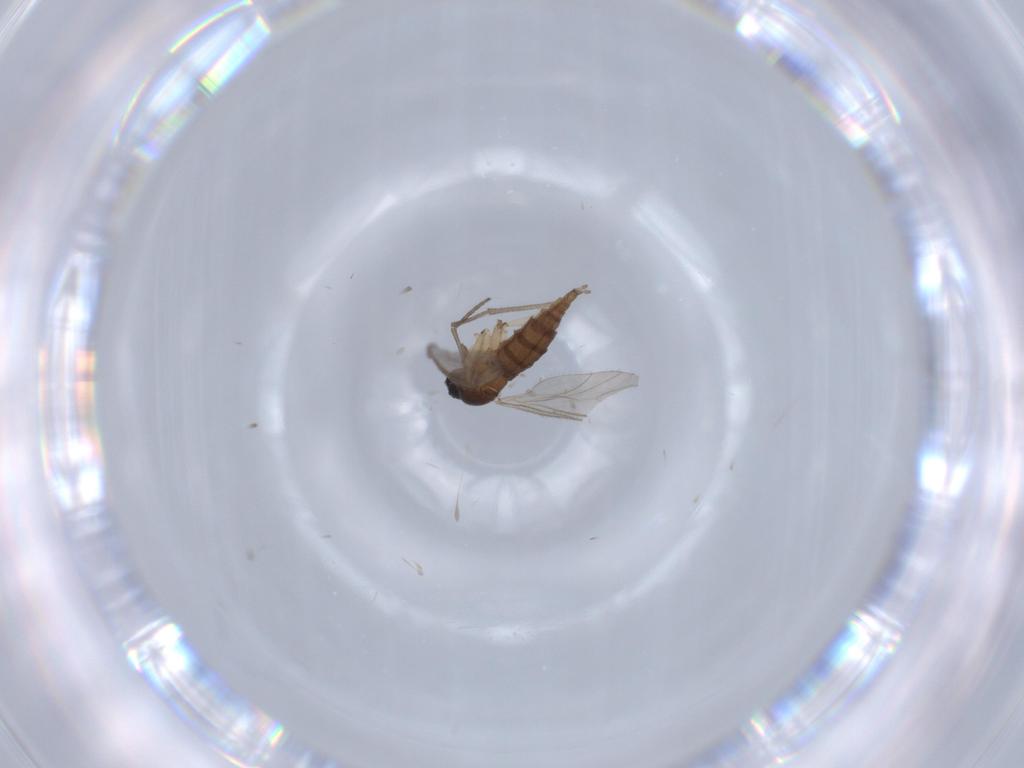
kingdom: Animalia
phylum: Arthropoda
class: Insecta
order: Diptera
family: Sciaridae
